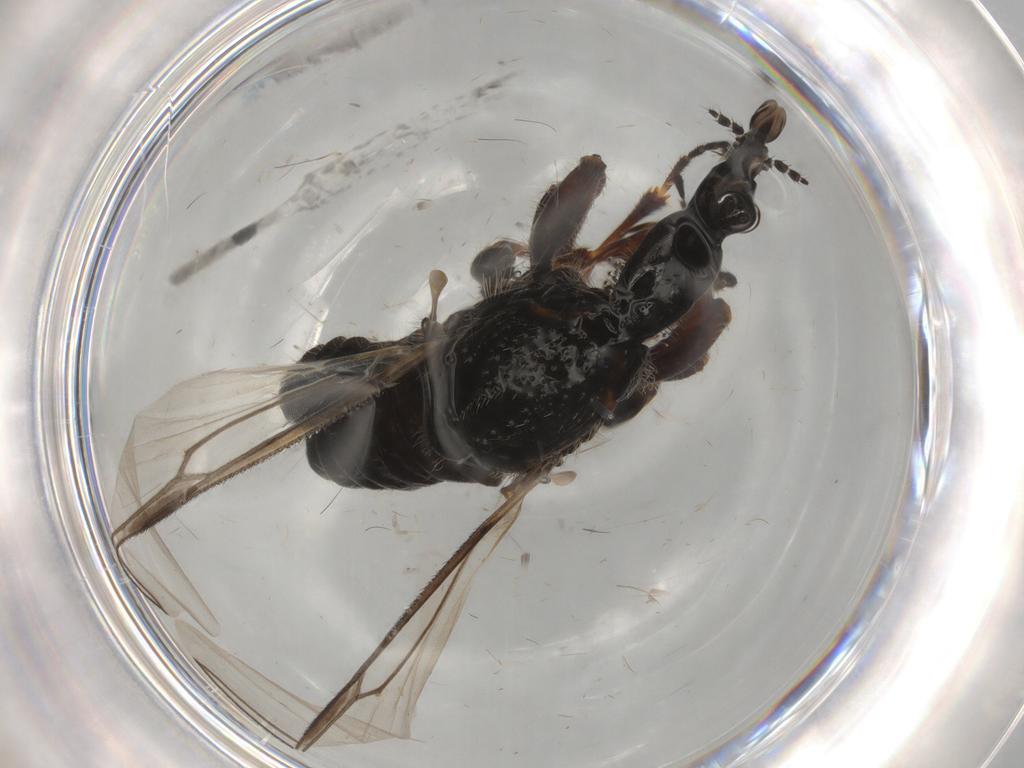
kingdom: Animalia
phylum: Arthropoda
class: Insecta
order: Diptera
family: Bibionidae
